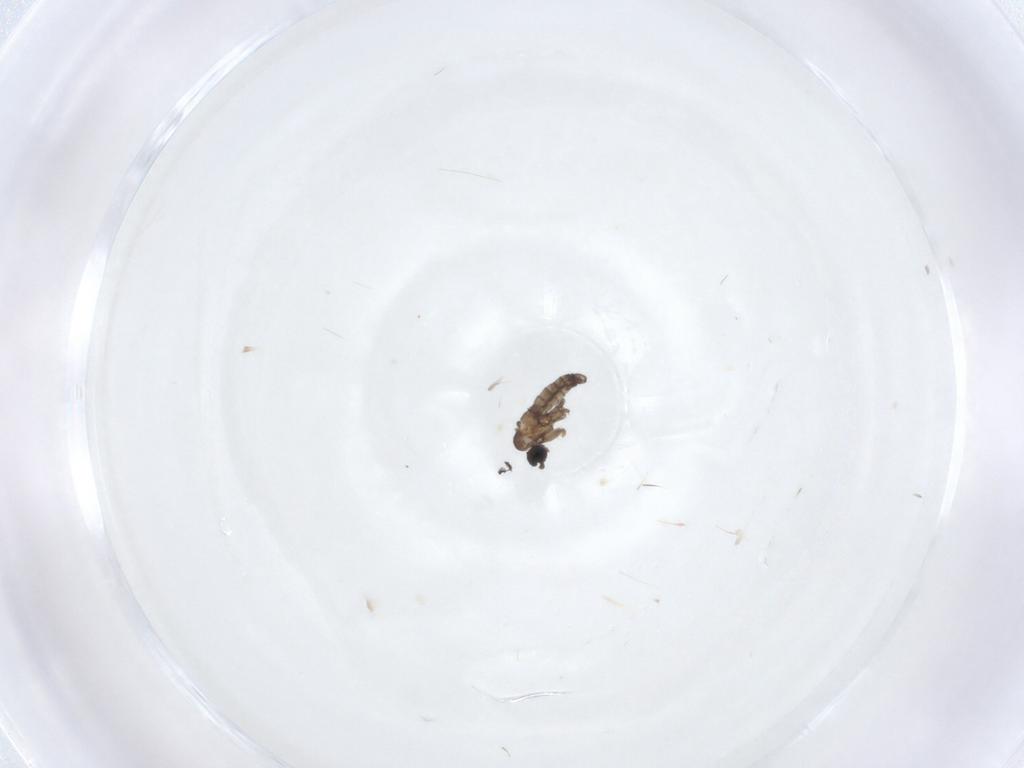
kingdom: Animalia
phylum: Arthropoda
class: Insecta
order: Diptera
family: Sciaridae
